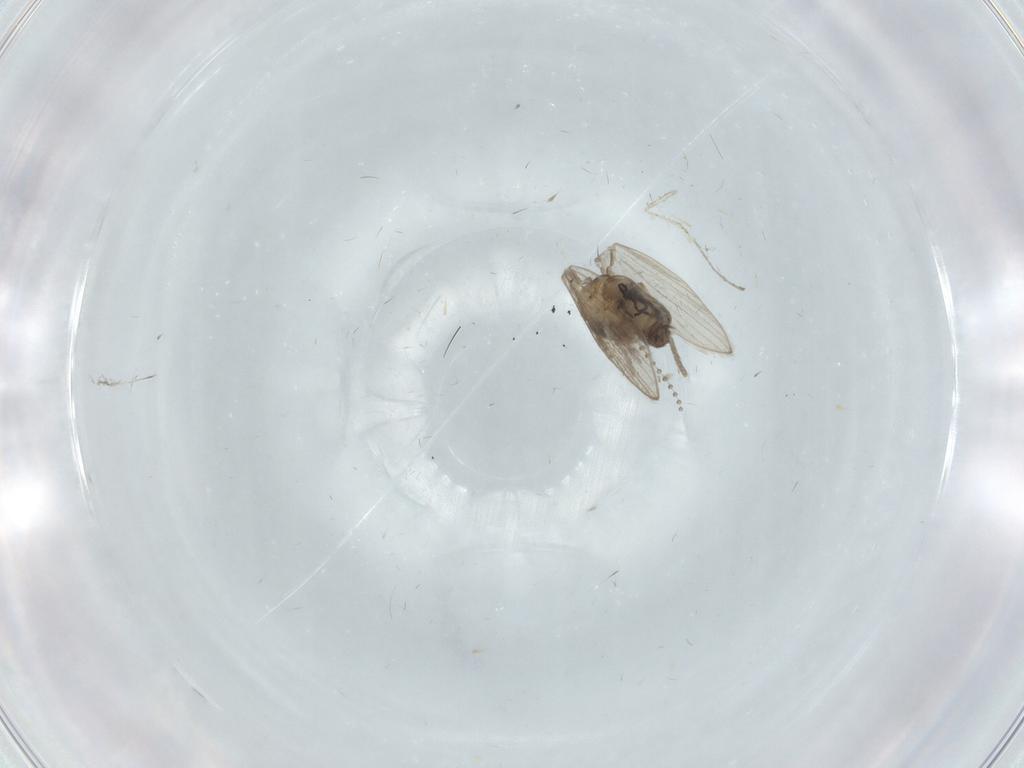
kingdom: Animalia
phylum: Arthropoda
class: Insecta
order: Diptera
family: Psychodidae
